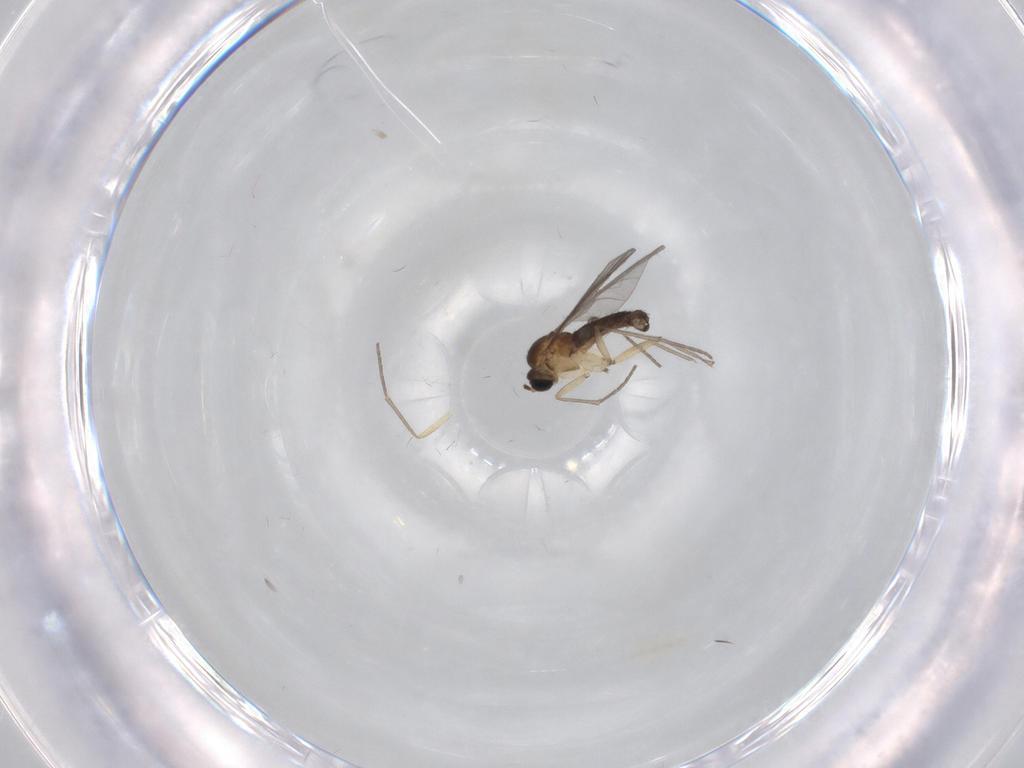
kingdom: Animalia
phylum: Arthropoda
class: Insecta
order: Diptera
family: Sciaridae
